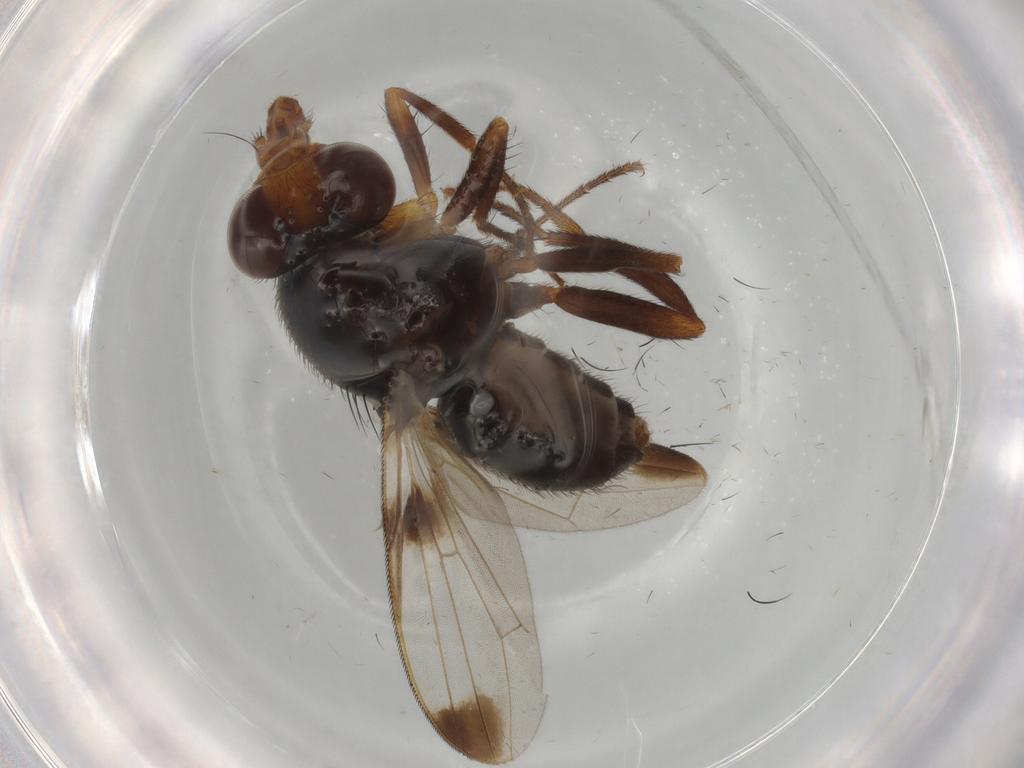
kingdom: Animalia
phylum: Arthropoda
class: Insecta
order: Diptera
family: Ulidiidae
